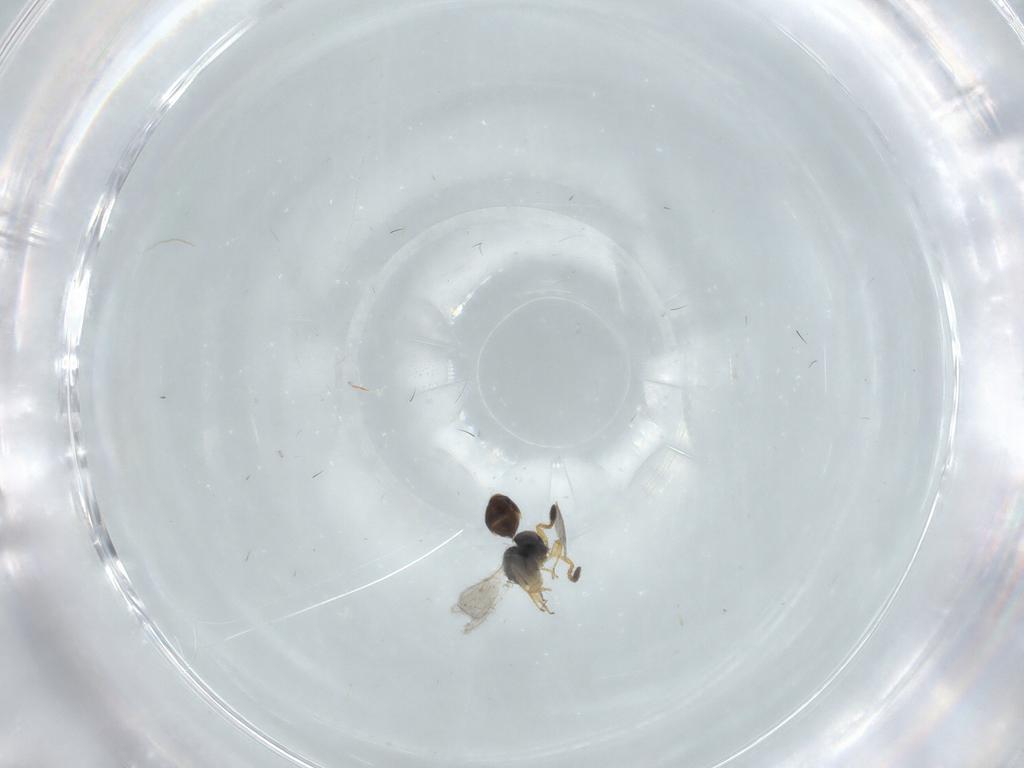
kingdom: Animalia
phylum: Arthropoda
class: Insecta
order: Hymenoptera
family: Scelionidae
